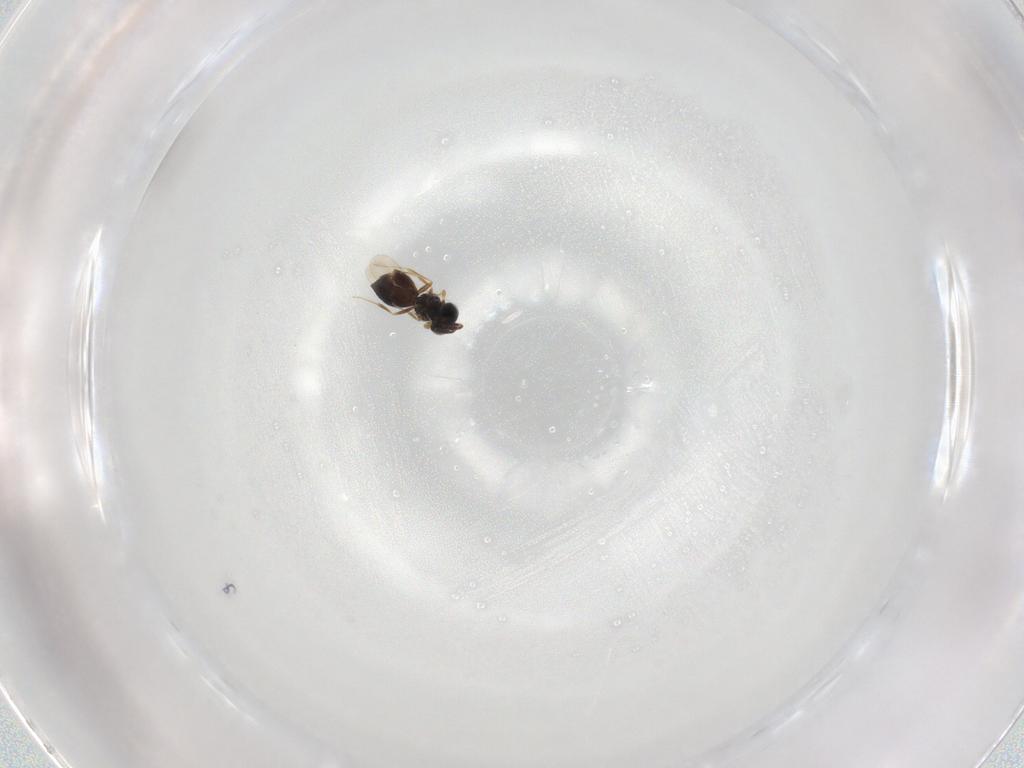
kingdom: Animalia
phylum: Arthropoda
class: Insecta
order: Hymenoptera
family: Scelionidae
